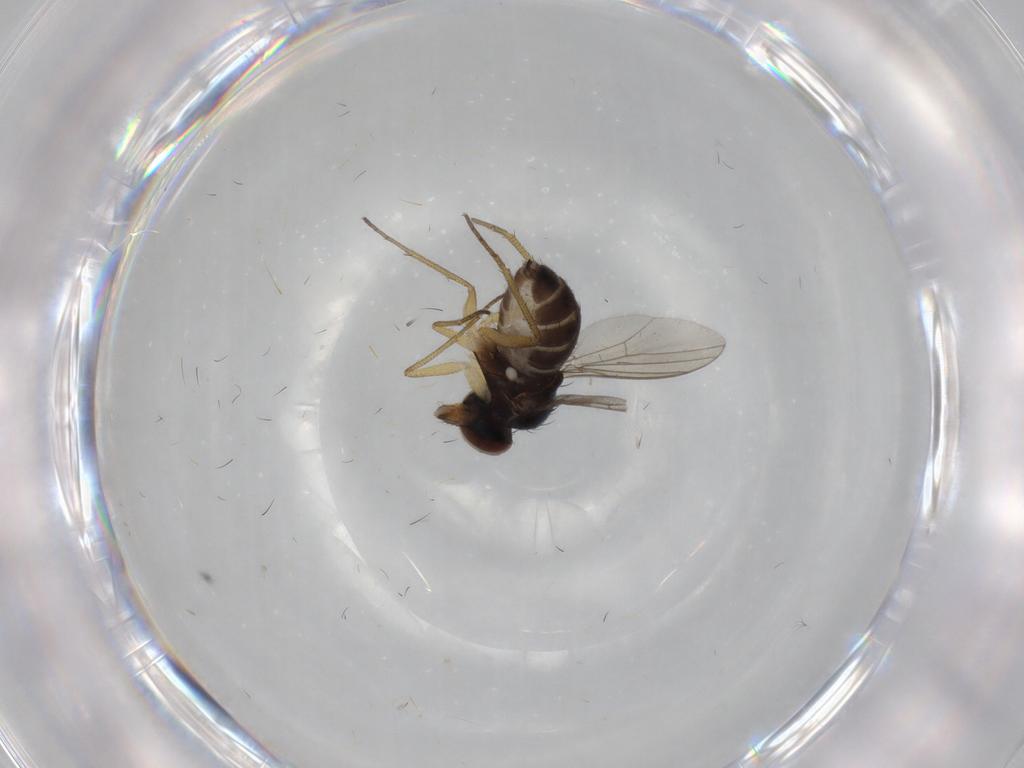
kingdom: Animalia
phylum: Arthropoda
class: Insecta
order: Diptera
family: Dolichopodidae
